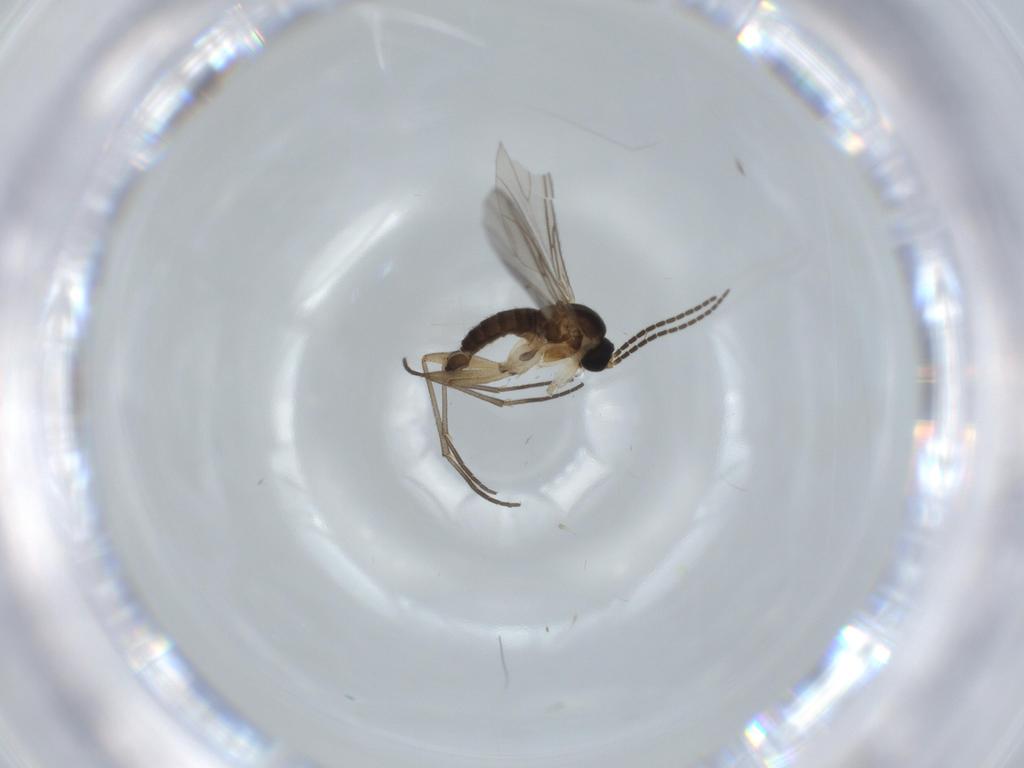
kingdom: Animalia
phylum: Arthropoda
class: Insecta
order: Diptera
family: Sciaridae
